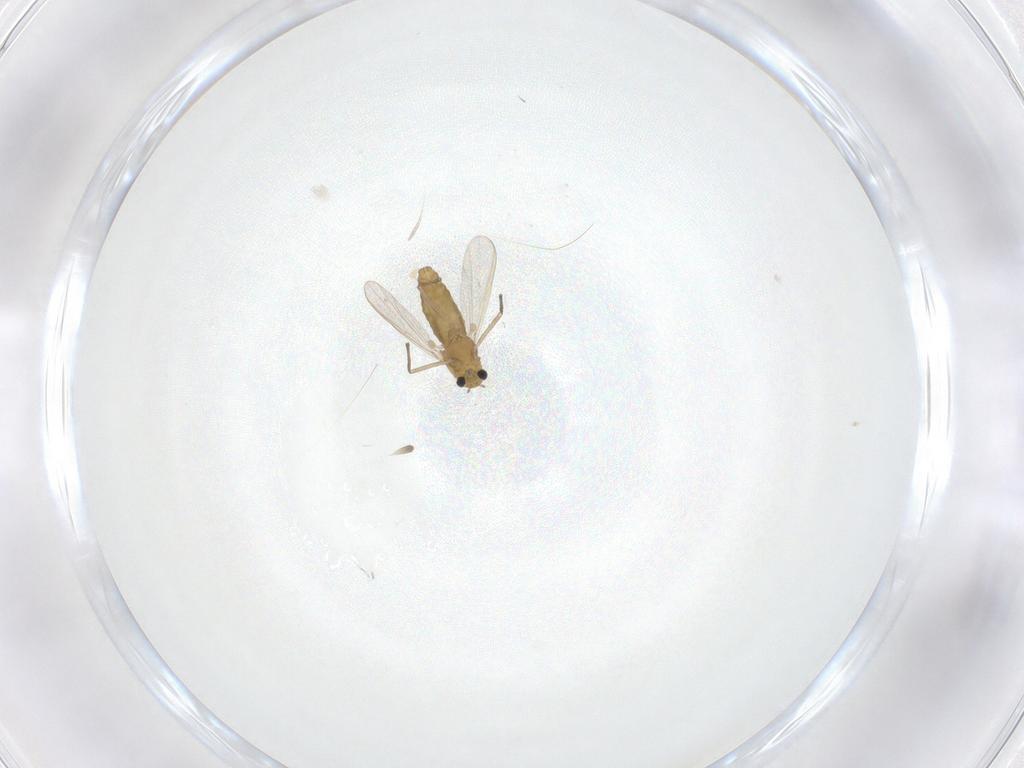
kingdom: Animalia
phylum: Arthropoda
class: Insecta
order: Diptera
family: Chironomidae
